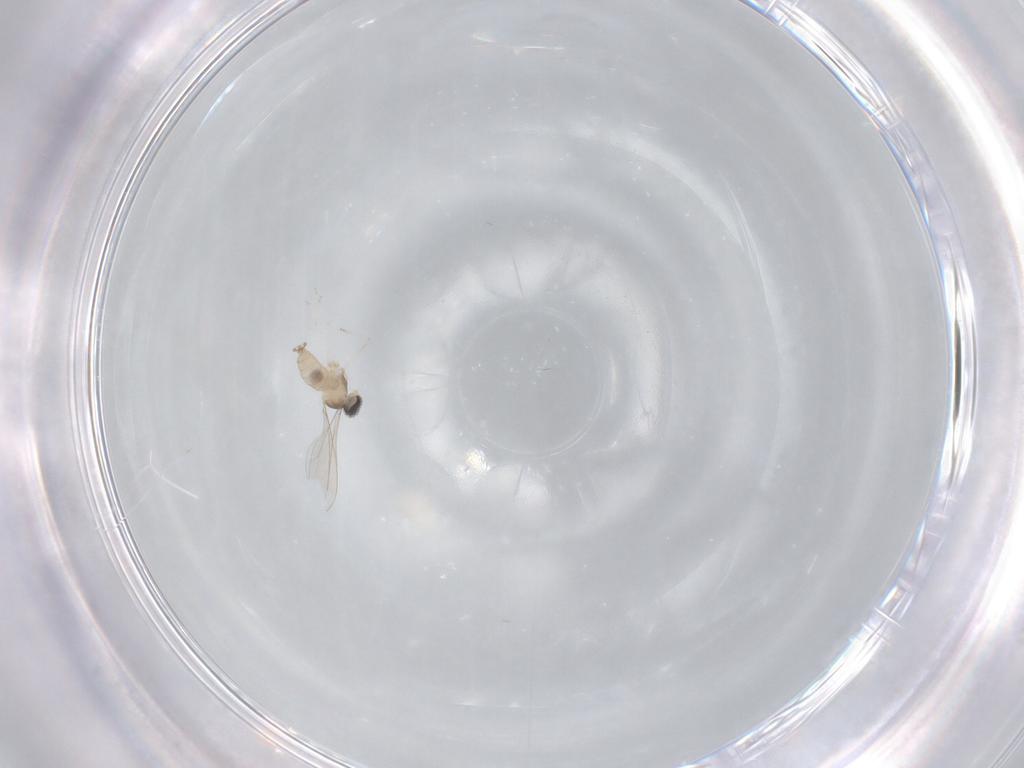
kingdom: Animalia
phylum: Arthropoda
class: Insecta
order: Diptera
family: Cecidomyiidae
